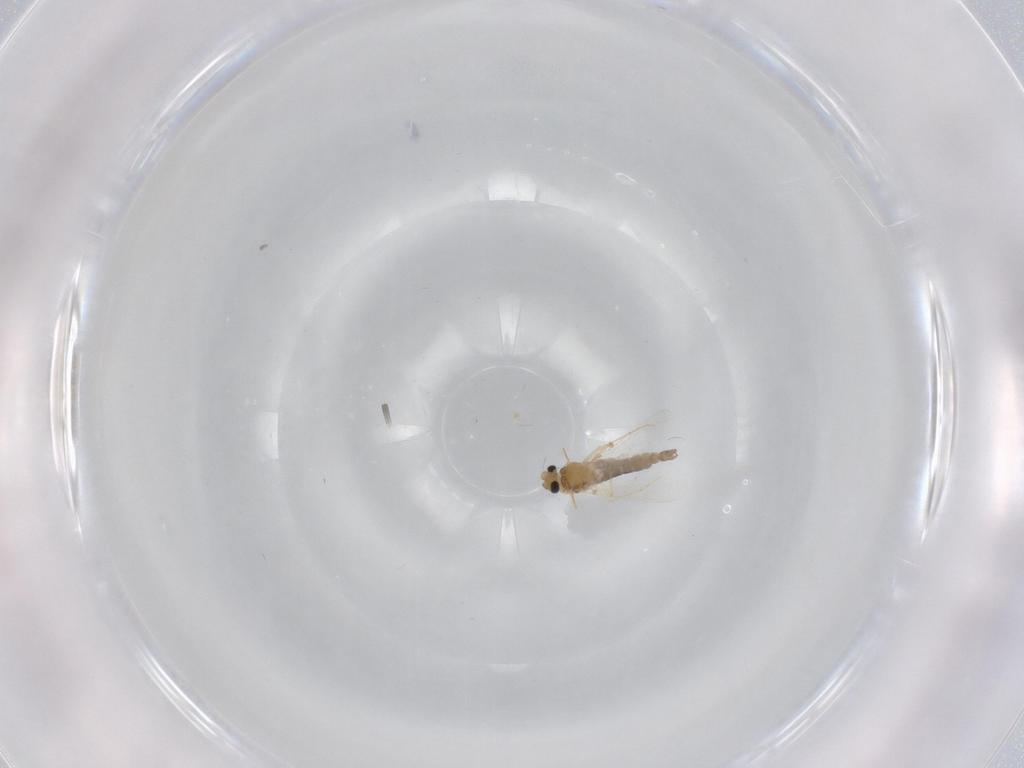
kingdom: Animalia
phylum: Arthropoda
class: Insecta
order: Diptera
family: Chironomidae
